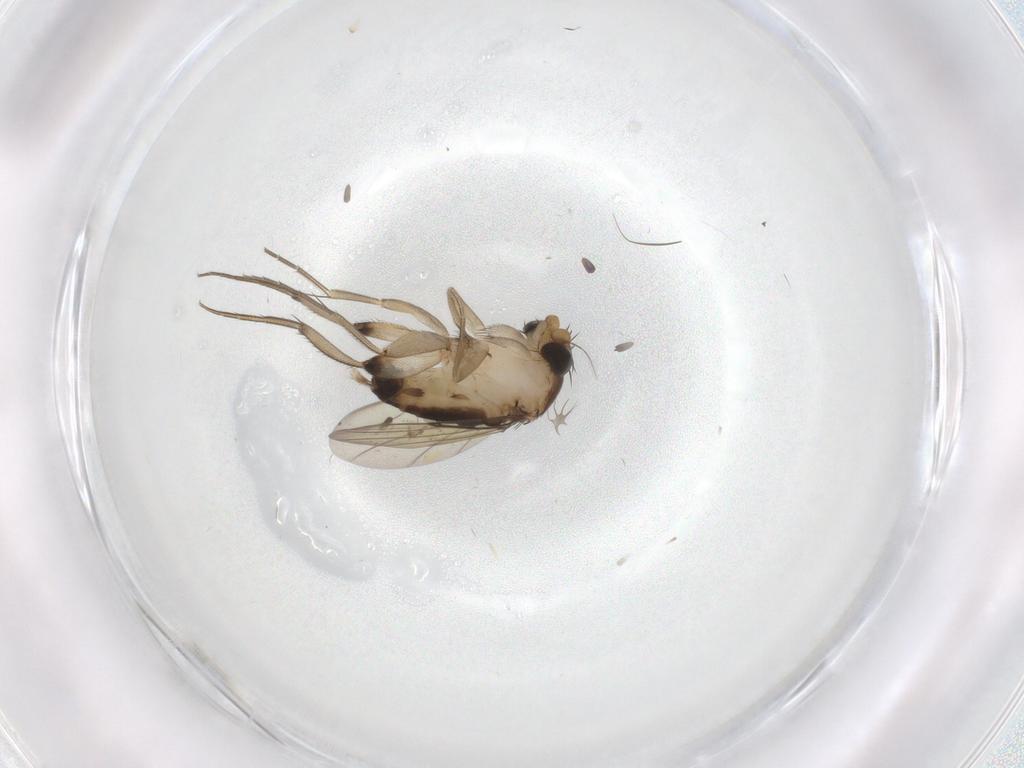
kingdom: Animalia
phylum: Arthropoda
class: Insecta
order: Diptera
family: Phoridae
